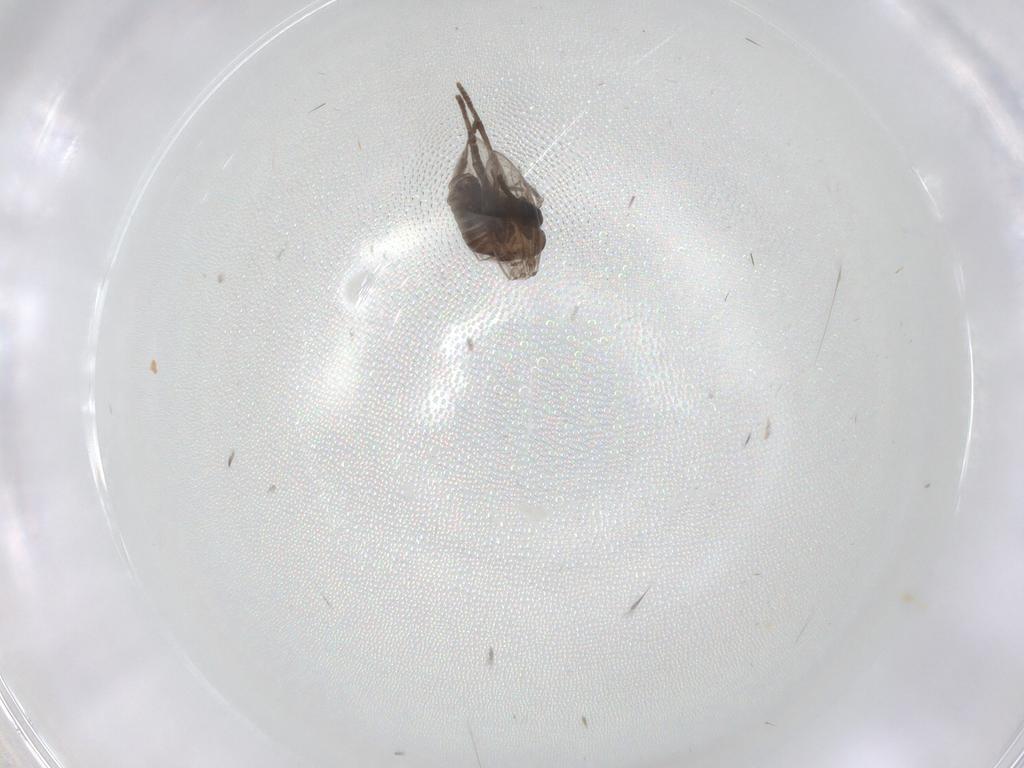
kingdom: Animalia
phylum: Arthropoda
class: Insecta
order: Diptera
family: Psychodidae
